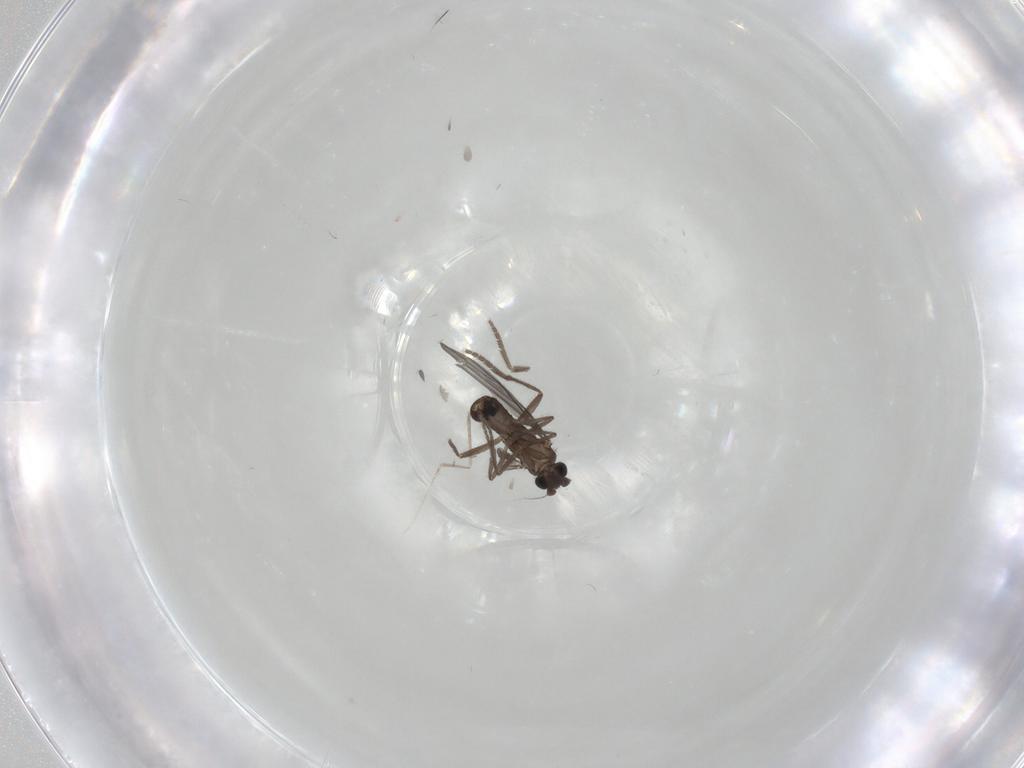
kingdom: Animalia
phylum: Arthropoda
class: Insecta
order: Diptera
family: Phoridae
